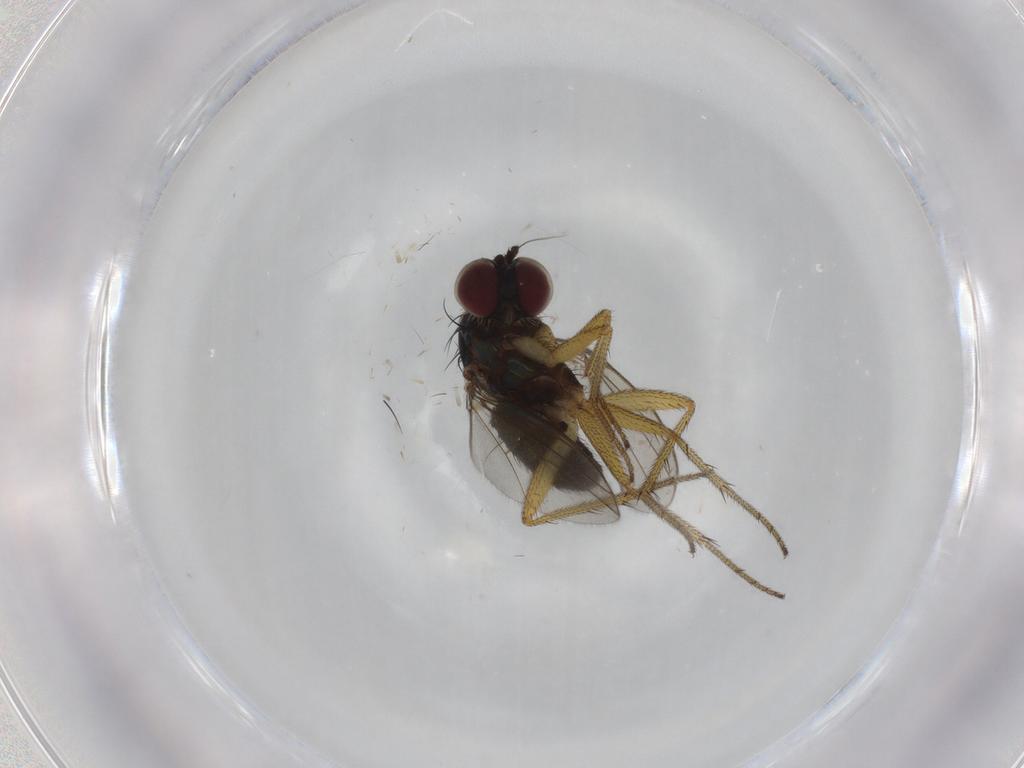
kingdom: Animalia
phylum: Arthropoda
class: Insecta
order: Diptera
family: Dolichopodidae
